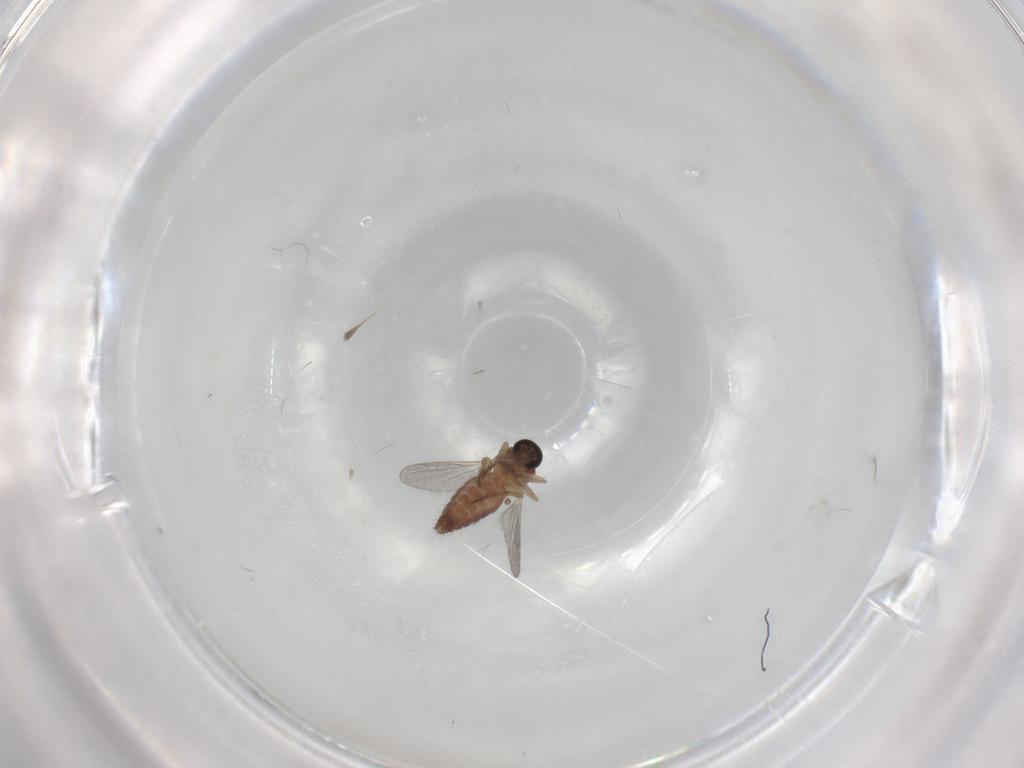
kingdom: Animalia
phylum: Arthropoda
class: Insecta
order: Diptera
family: Ceratopogonidae
